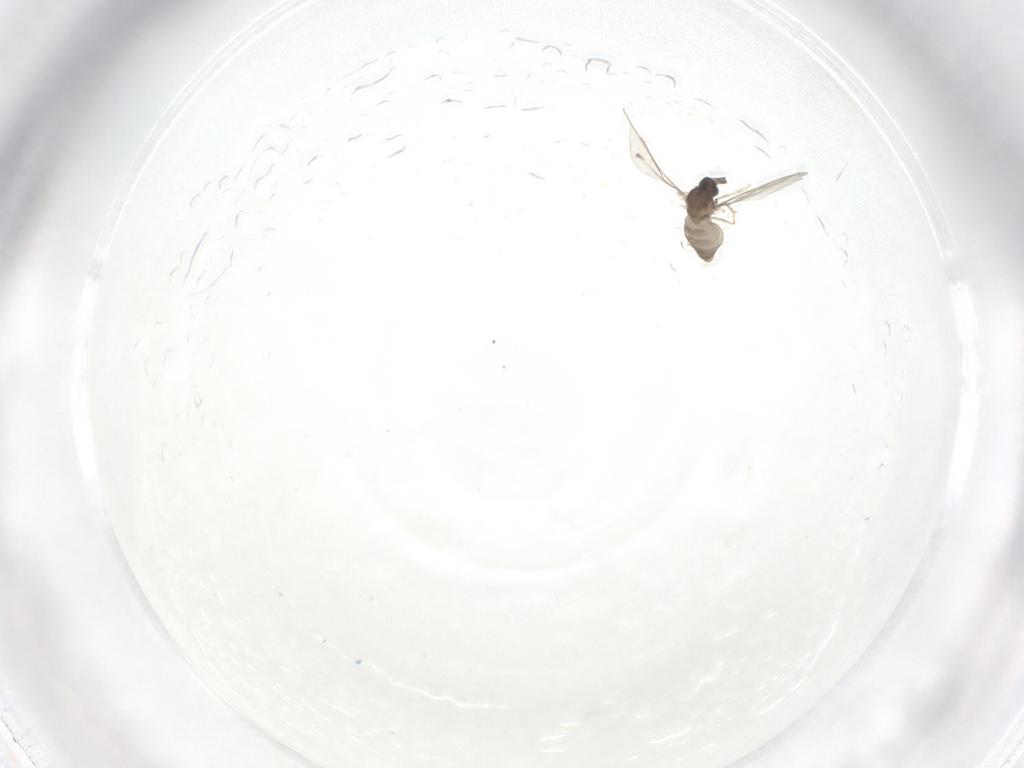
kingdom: Animalia
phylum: Arthropoda
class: Insecta
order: Diptera
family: Cecidomyiidae
